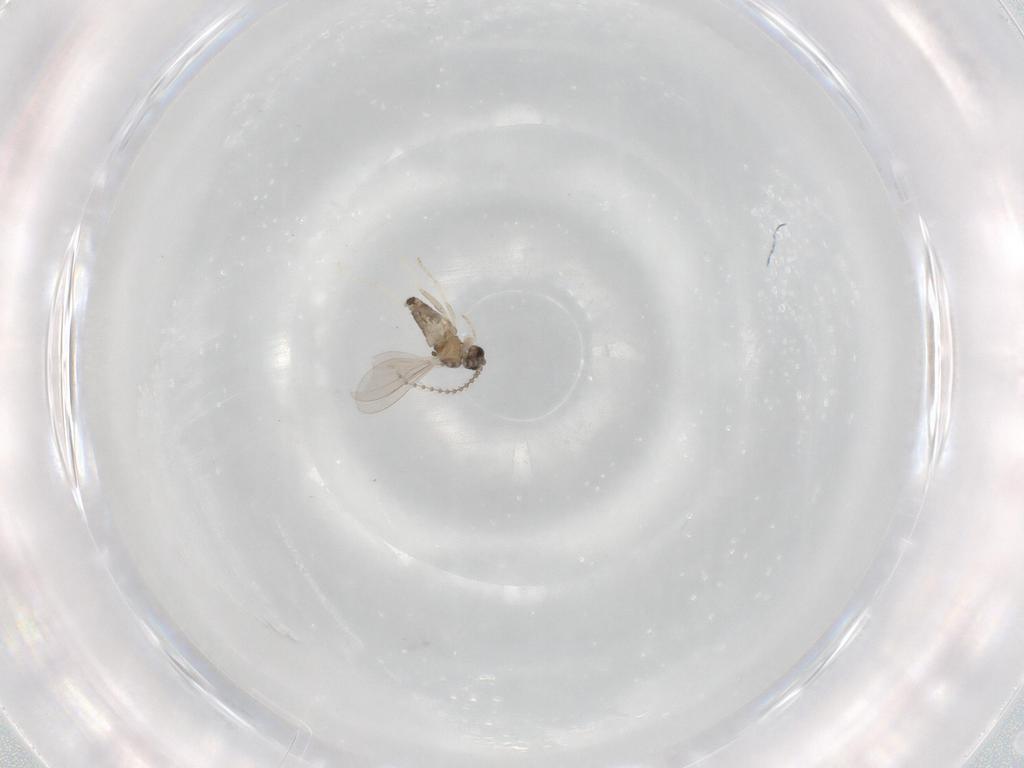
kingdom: Animalia
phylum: Arthropoda
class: Insecta
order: Diptera
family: Cecidomyiidae
